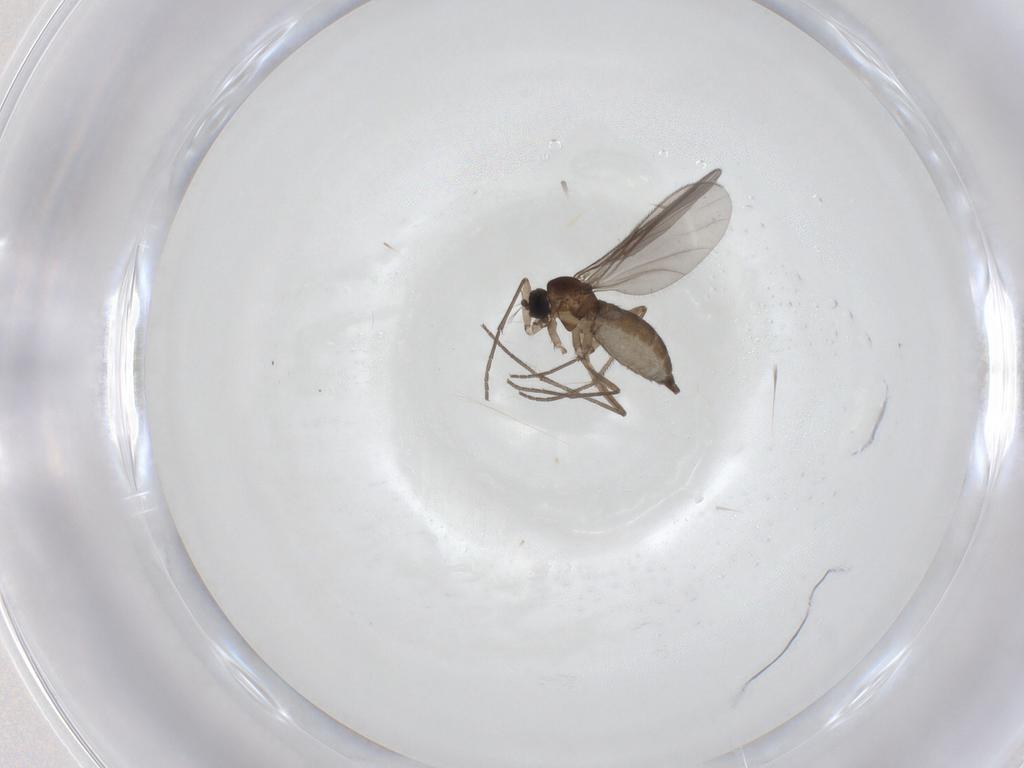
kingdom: Animalia
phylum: Arthropoda
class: Insecta
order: Diptera
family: Sciaridae
